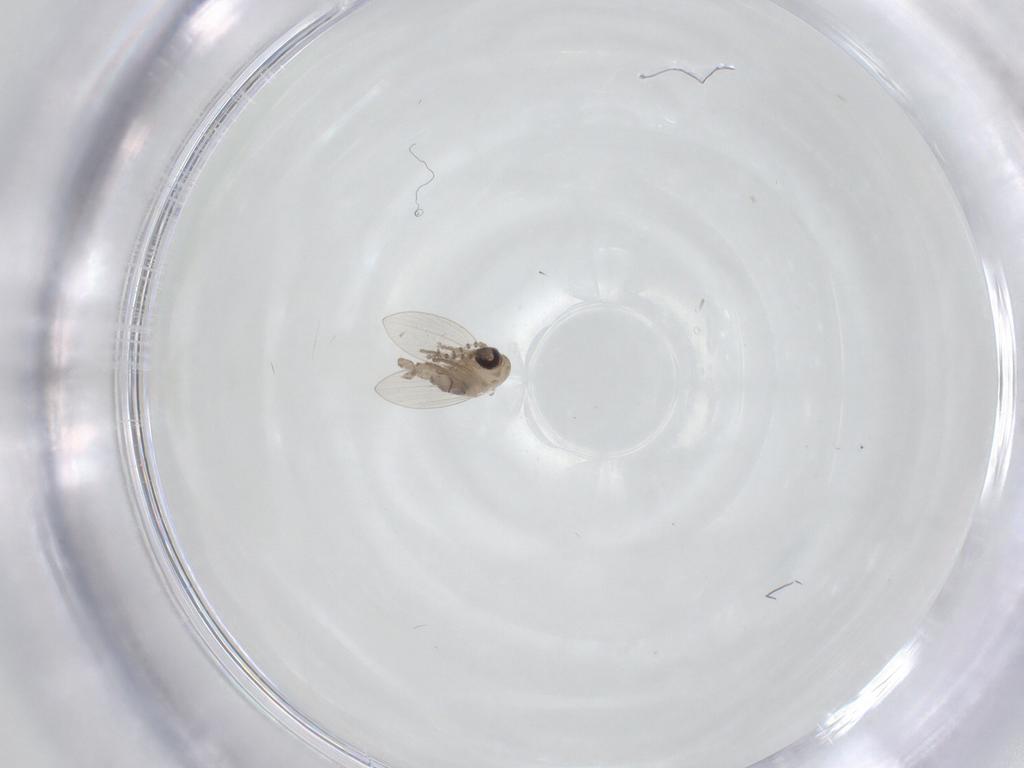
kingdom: Animalia
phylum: Arthropoda
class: Insecta
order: Diptera
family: Psychodidae
